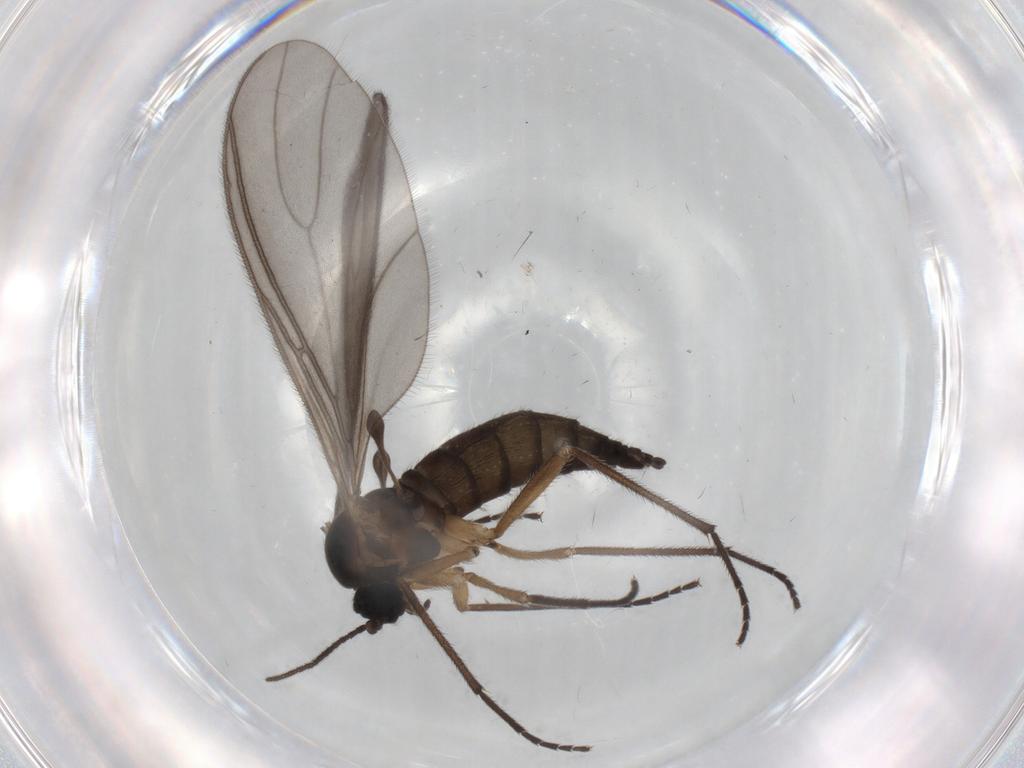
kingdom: Animalia
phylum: Arthropoda
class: Insecta
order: Diptera
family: Sciaridae
